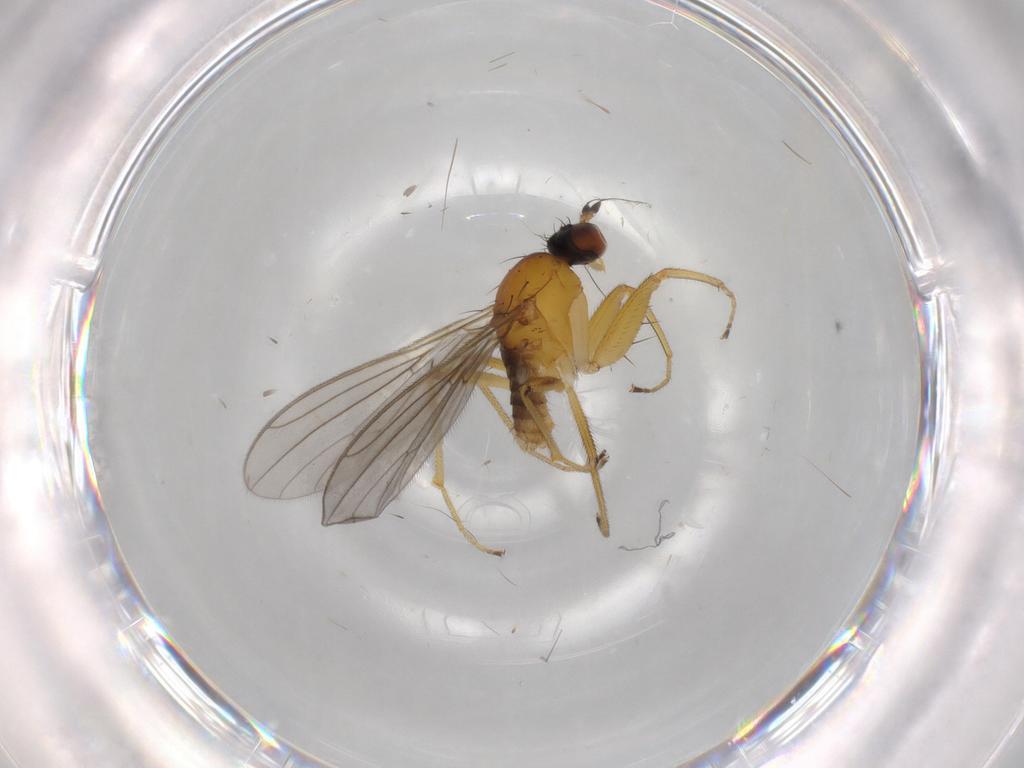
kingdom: Animalia
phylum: Arthropoda
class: Insecta
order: Diptera
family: Empididae
